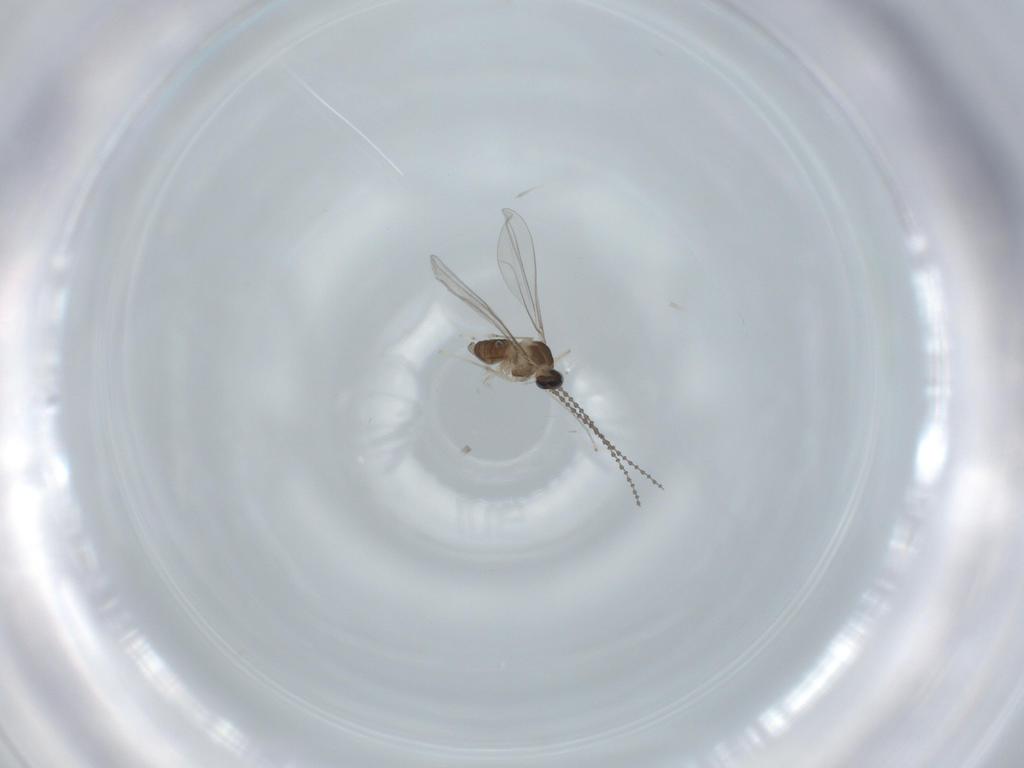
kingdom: Animalia
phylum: Arthropoda
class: Insecta
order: Diptera
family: Cecidomyiidae
